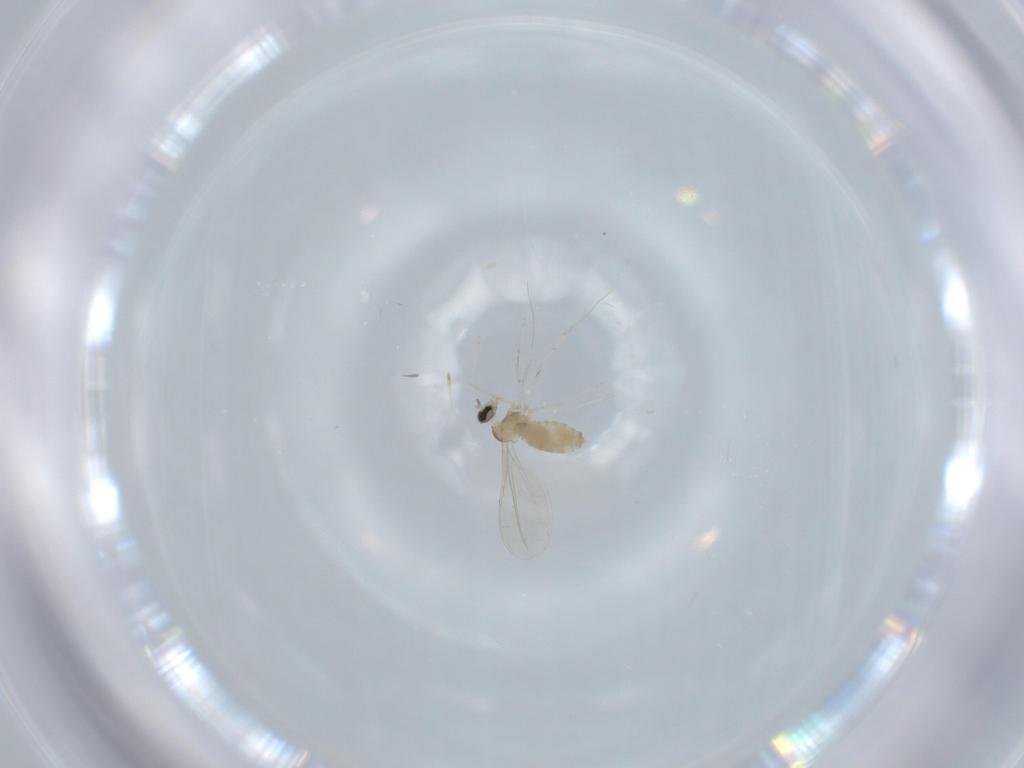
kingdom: Animalia
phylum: Arthropoda
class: Insecta
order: Diptera
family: Cecidomyiidae
